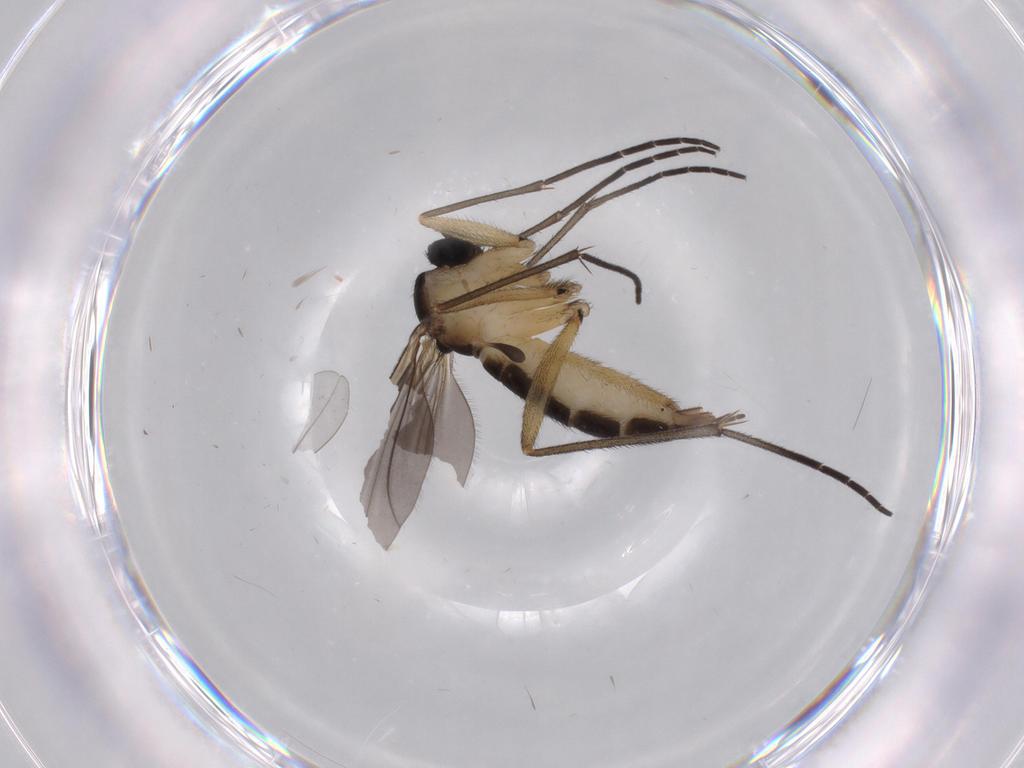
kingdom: Animalia
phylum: Arthropoda
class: Insecta
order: Diptera
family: Sciaridae
